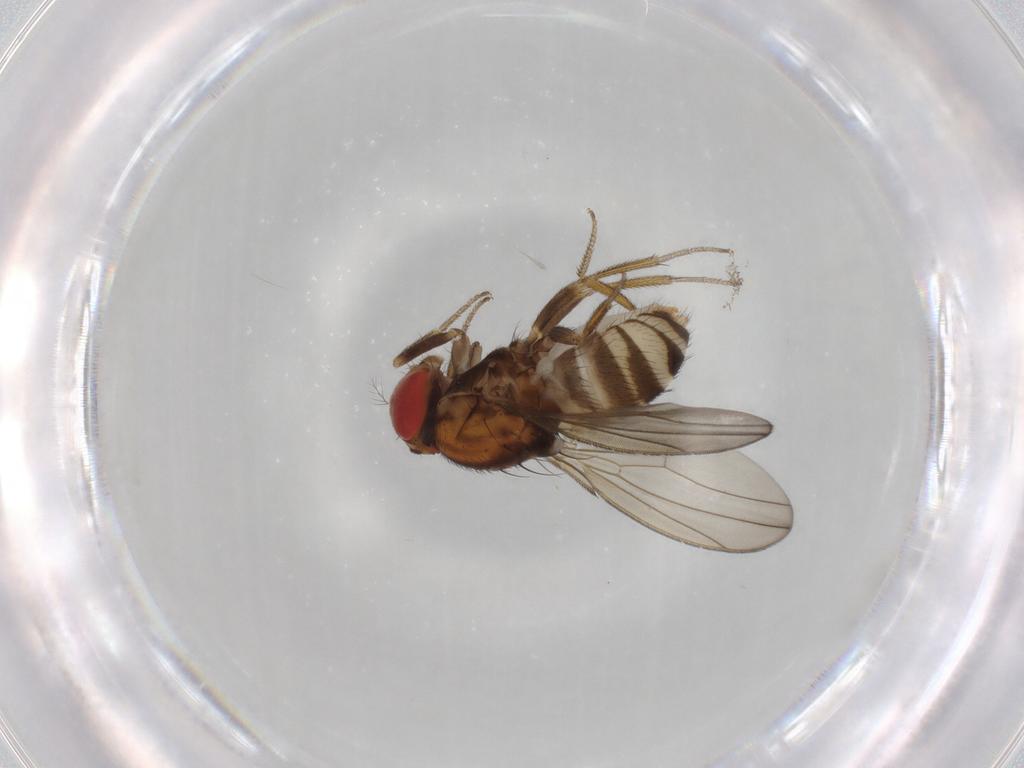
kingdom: Animalia
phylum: Arthropoda
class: Insecta
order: Diptera
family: Drosophilidae
